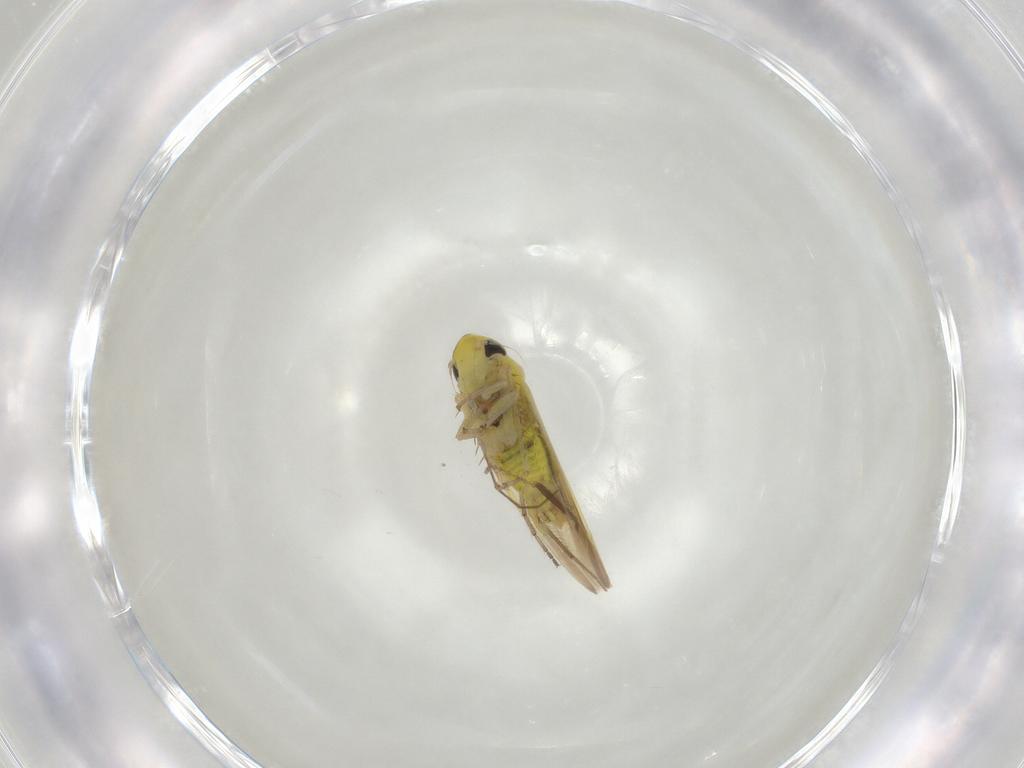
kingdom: Animalia
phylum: Arthropoda
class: Insecta
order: Hemiptera
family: Cicadellidae
